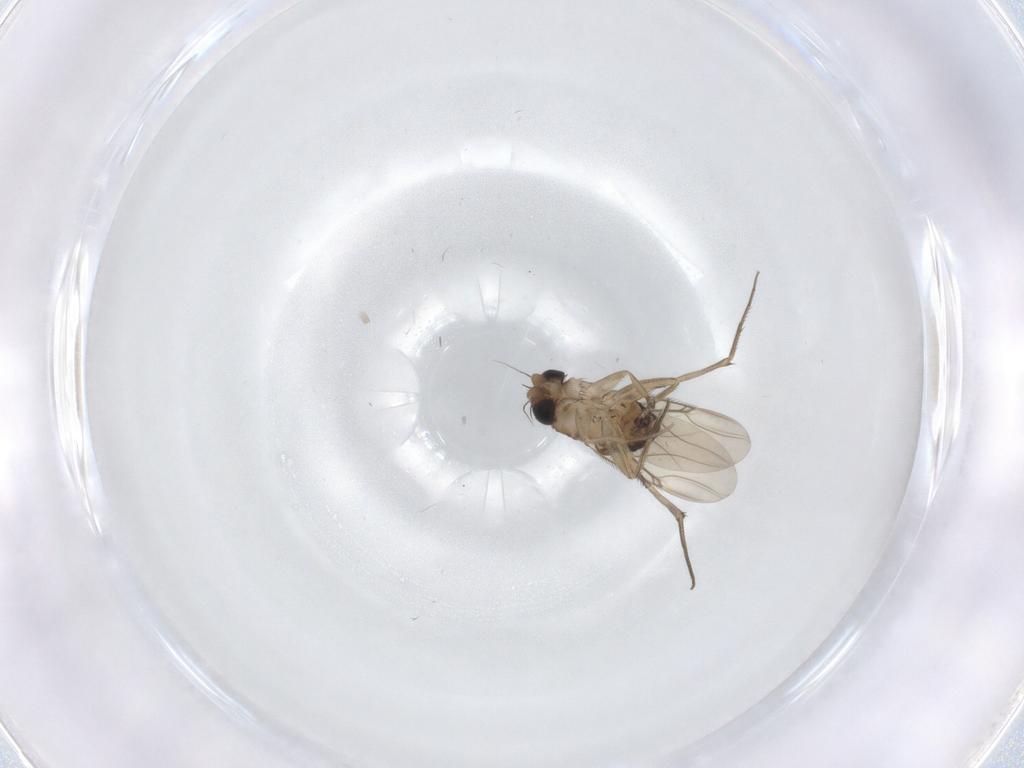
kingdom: Animalia
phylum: Arthropoda
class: Insecta
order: Diptera
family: Phoridae
